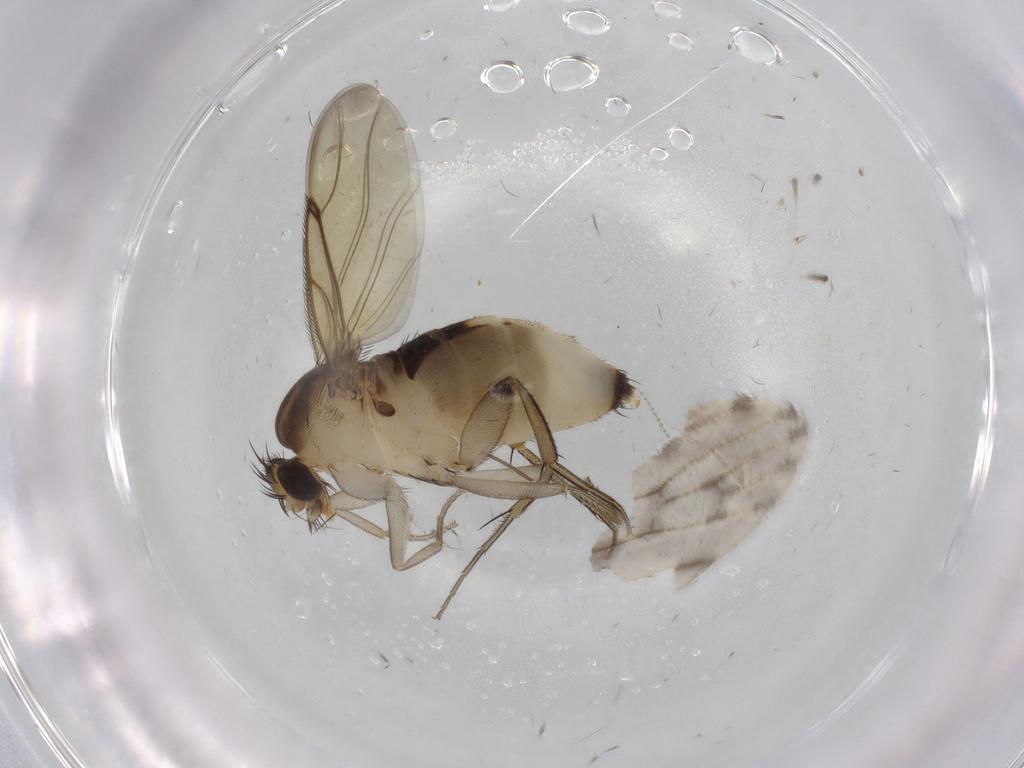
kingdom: Animalia
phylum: Arthropoda
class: Insecta
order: Diptera
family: Phoridae
